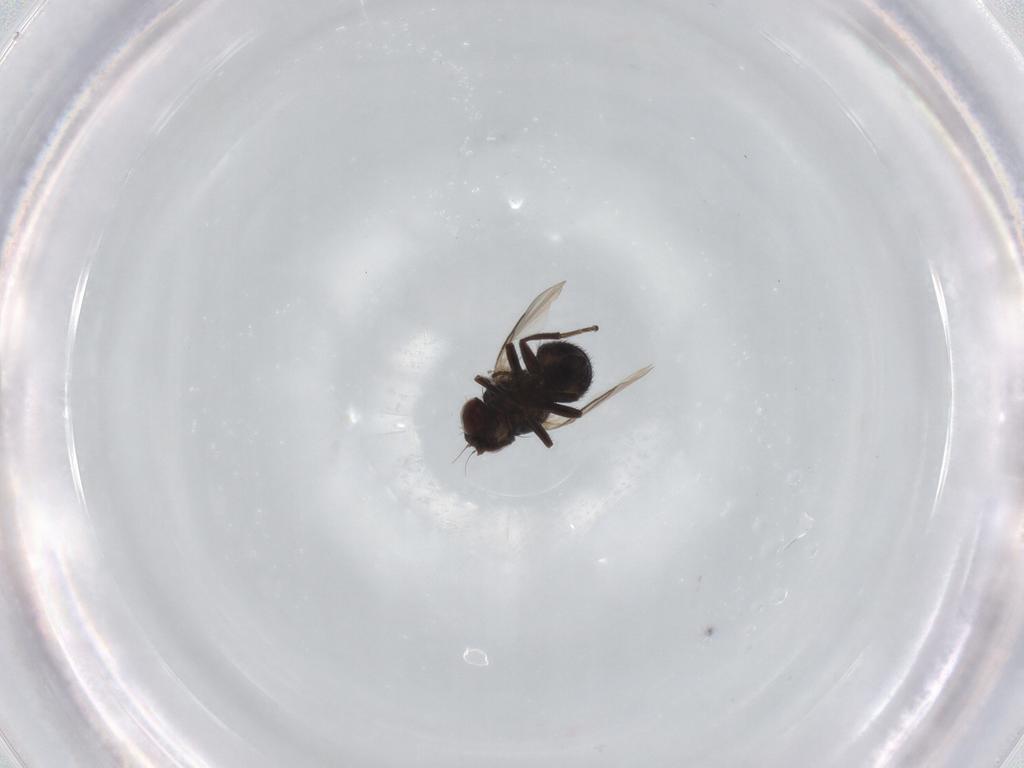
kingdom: Animalia
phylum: Arthropoda
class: Insecta
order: Diptera
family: Agromyzidae
